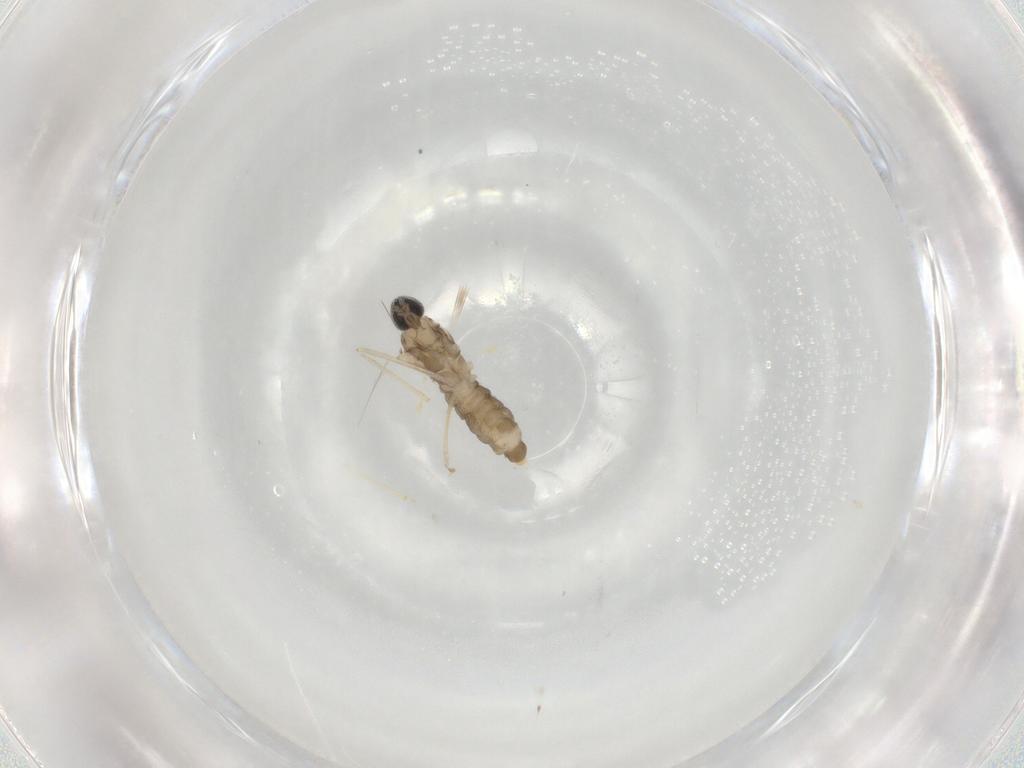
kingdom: Animalia
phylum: Arthropoda
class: Insecta
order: Diptera
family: Cecidomyiidae
